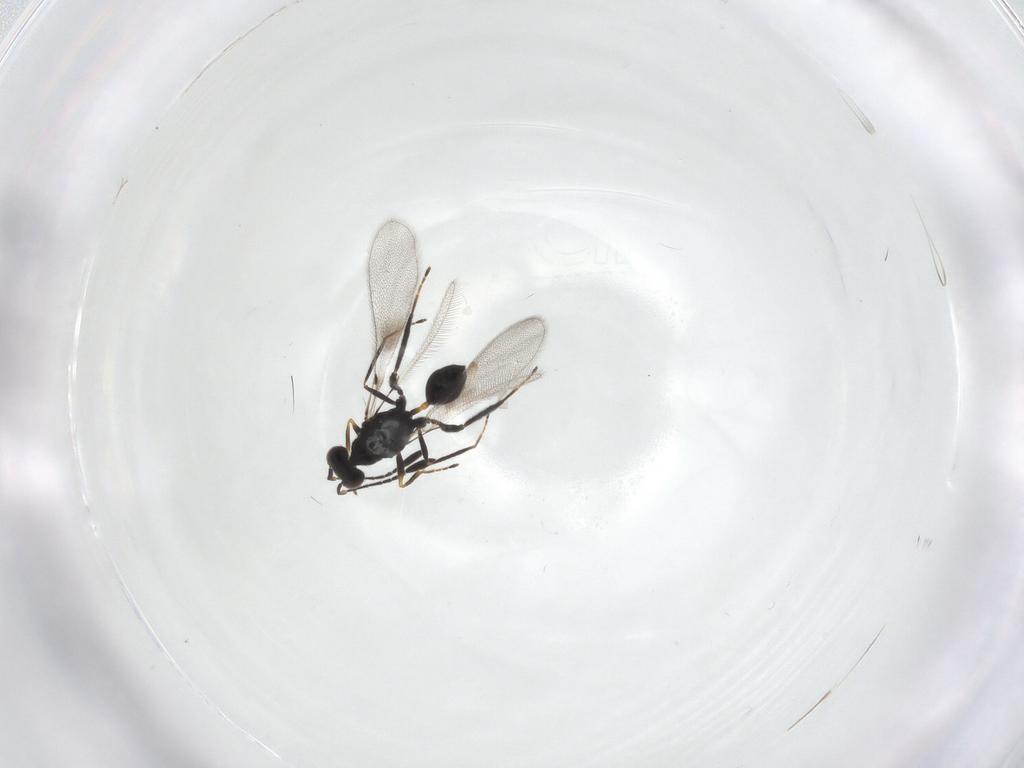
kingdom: Animalia
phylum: Arthropoda
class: Insecta
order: Hymenoptera
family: Mymaridae
